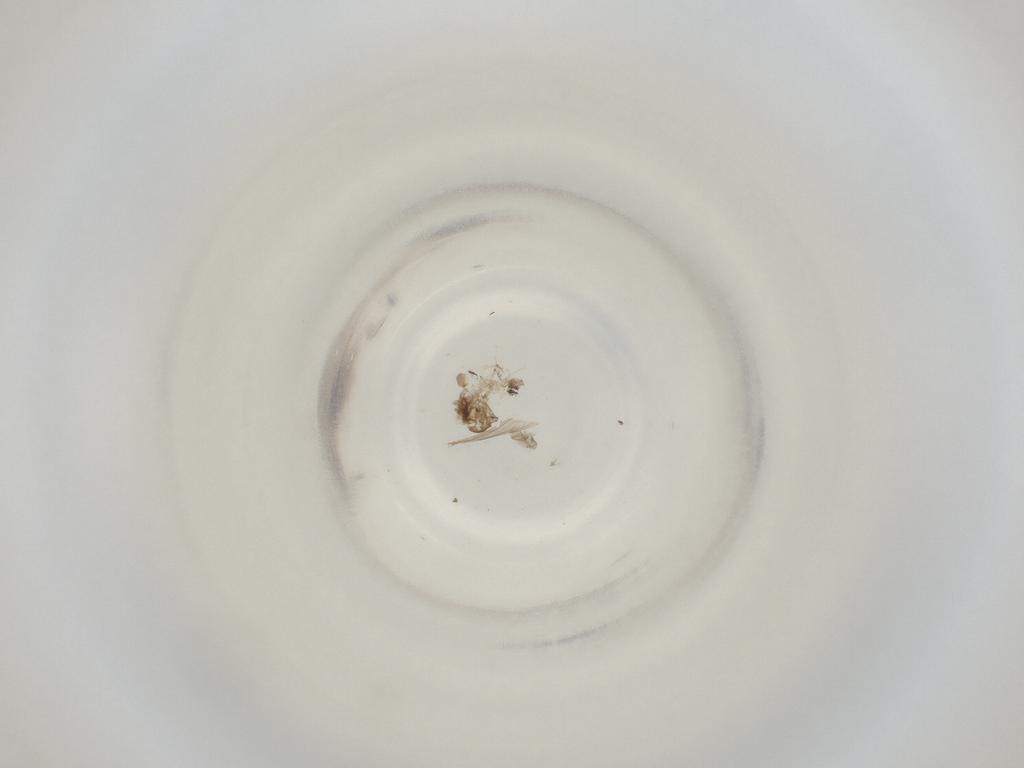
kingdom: Animalia
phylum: Arthropoda
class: Insecta
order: Diptera
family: Cecidomyiidae
